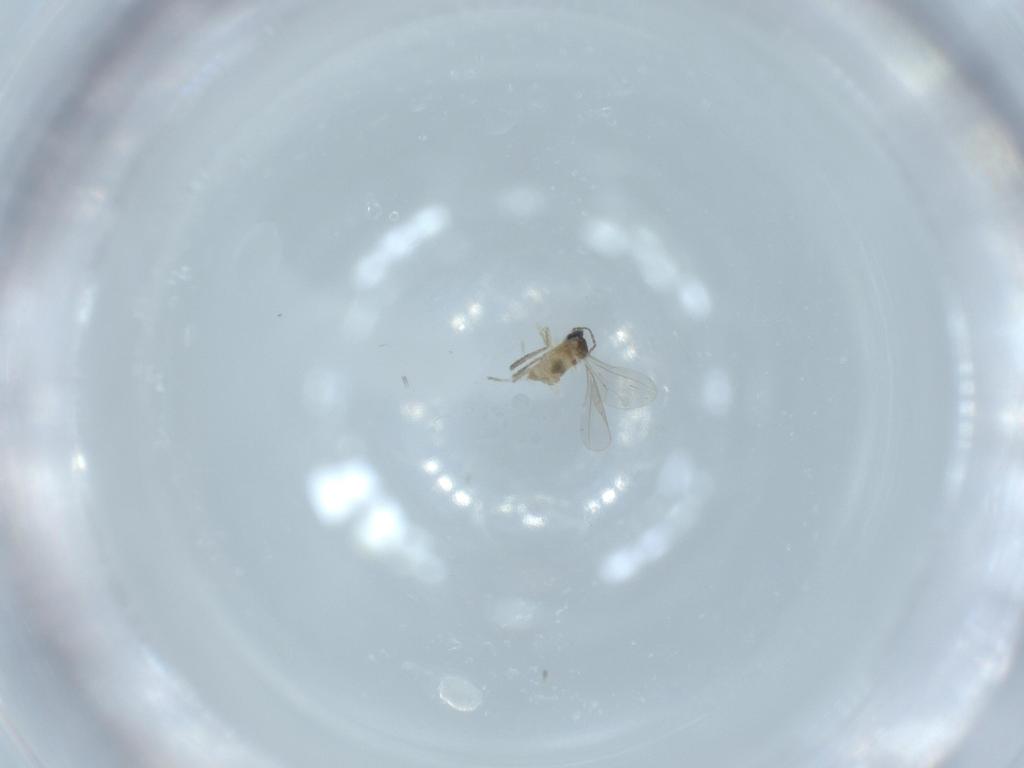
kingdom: Animalia
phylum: Arthropoda
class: Insecta
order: Diptera
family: Cecidomyiidae
